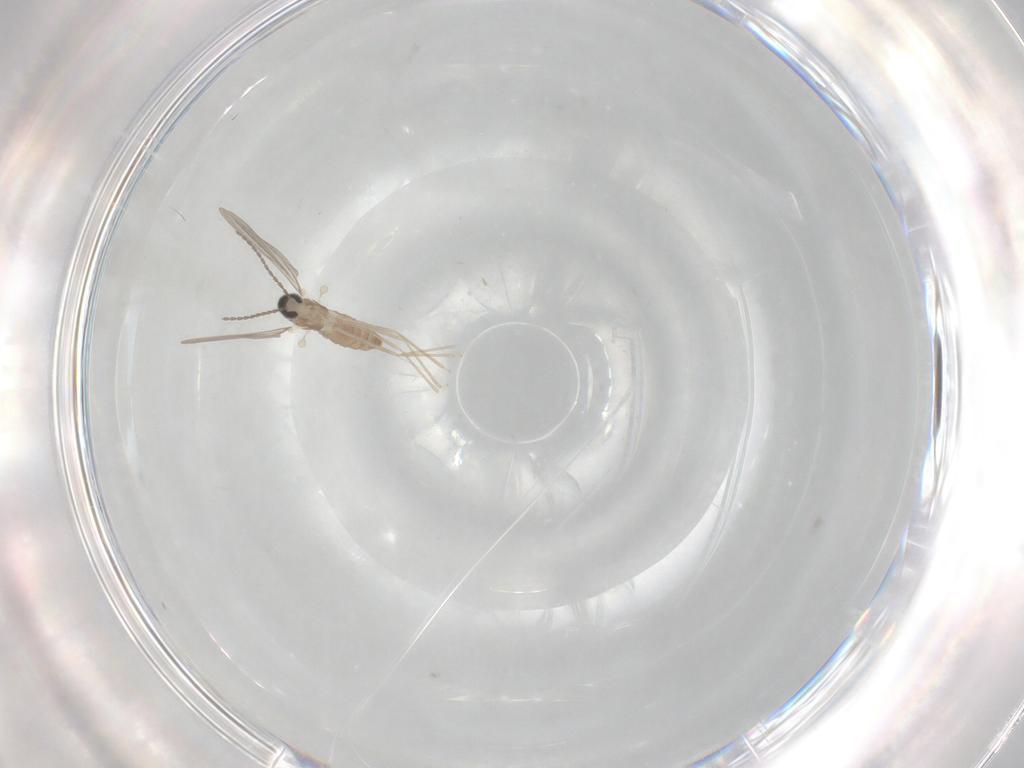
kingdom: Animalia
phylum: Arthropoda
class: Insecta
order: Diptera
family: Cecidomyiidae
